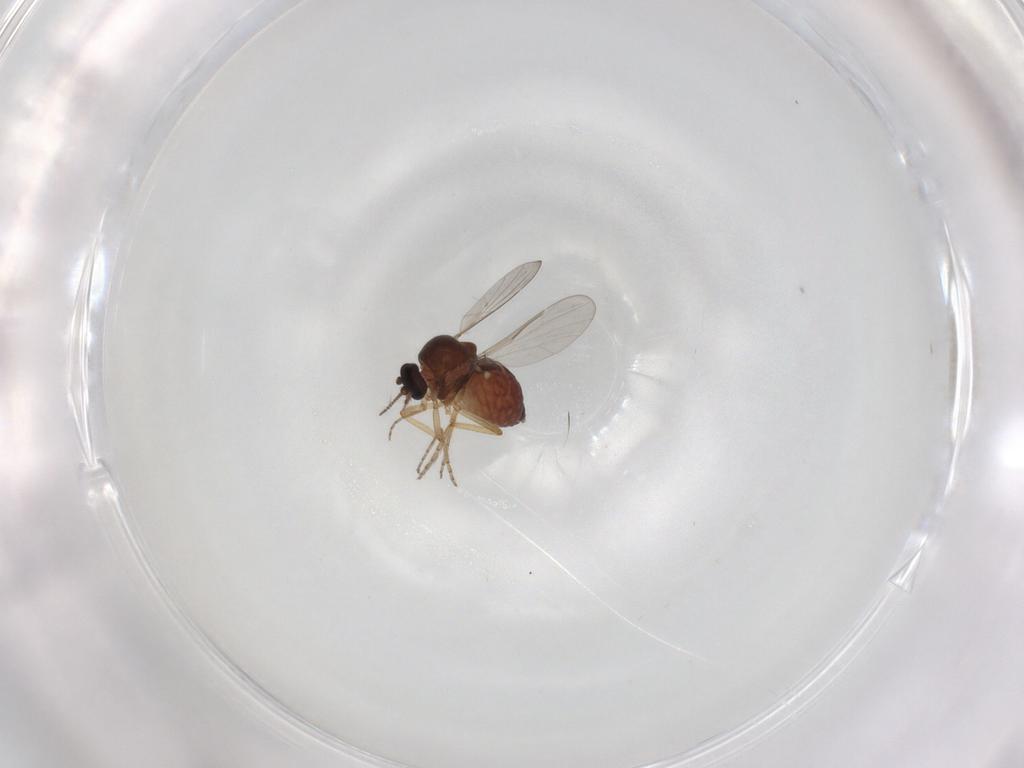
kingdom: Animalia
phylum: Arthropoda
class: Insecta
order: Diptera
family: Ceratopogonidae
